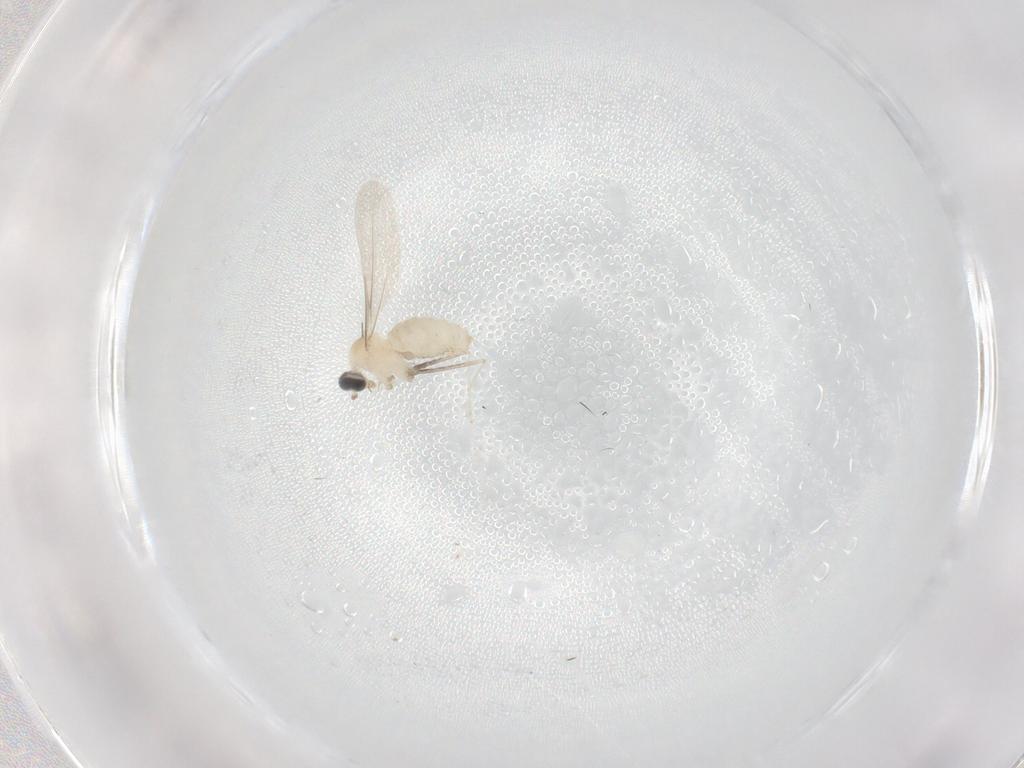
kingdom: Animalia
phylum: Arthropoda
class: Insecta
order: Diptera
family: Cecidomyiidae
